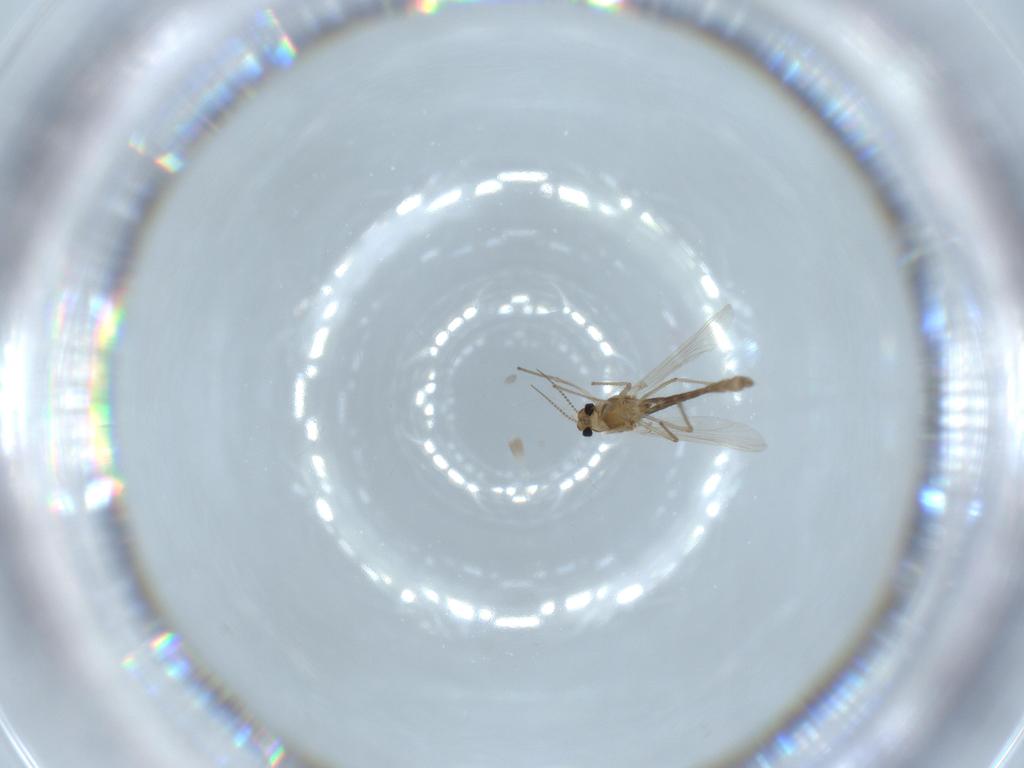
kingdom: Animalia
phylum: Arthropoda
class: Insecta
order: Diptera
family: Chironomidae
